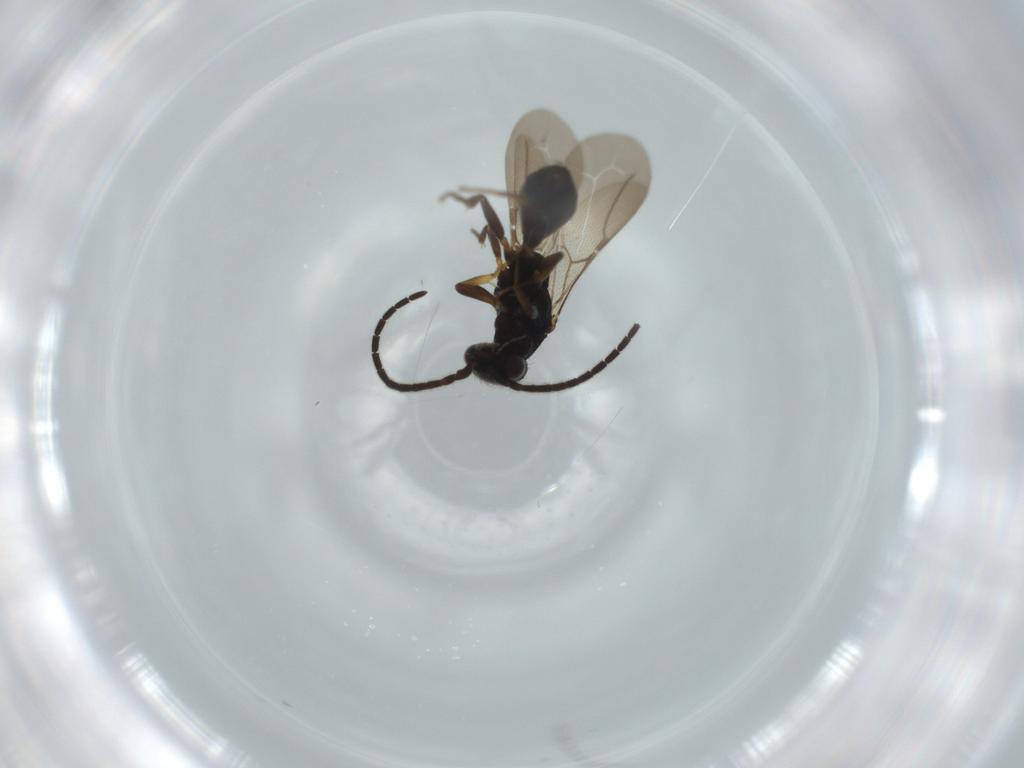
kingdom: Animalia
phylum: Arthropoda
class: Insecta
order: Hymenoptera
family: Bethylidae
